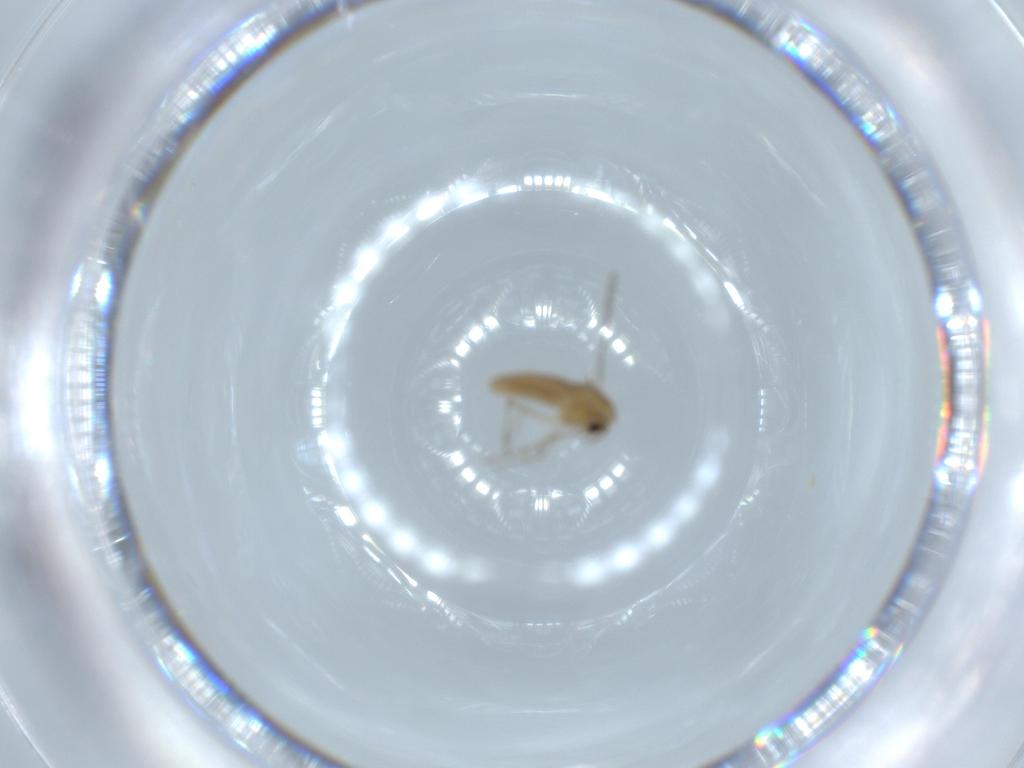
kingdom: Animalia
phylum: Arthropoda
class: Insecta
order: Diptera
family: Chironomidae
